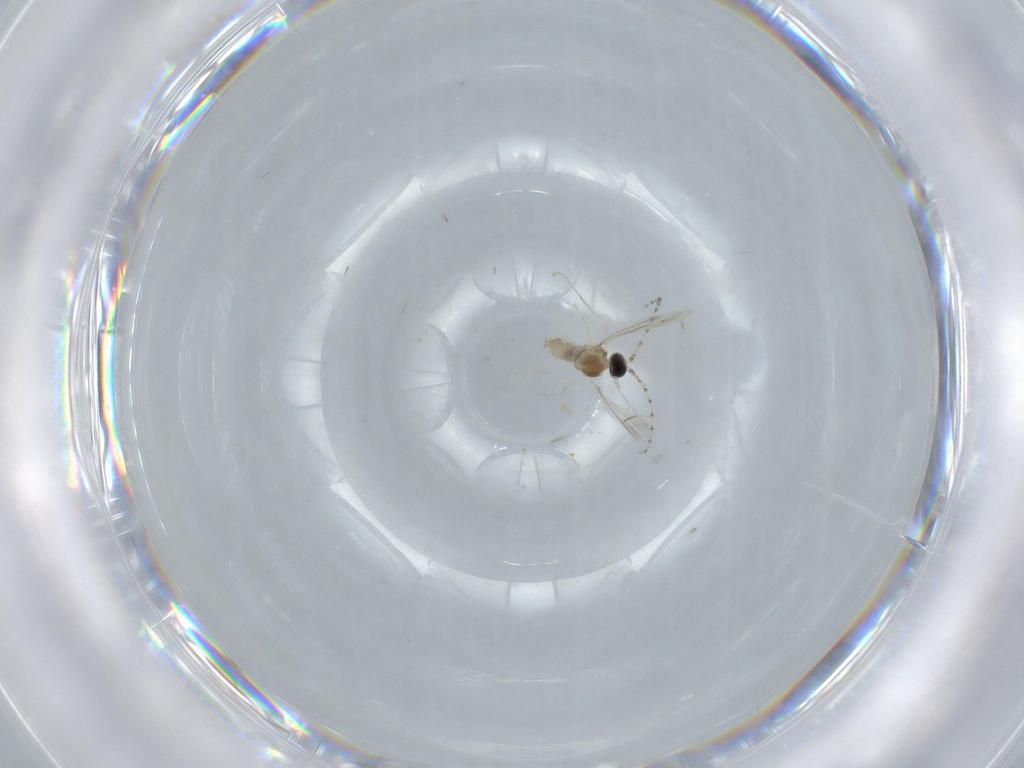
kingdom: Animalia
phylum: Arthropoda
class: Insecta
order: Diptera
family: Cecidomyiidae
